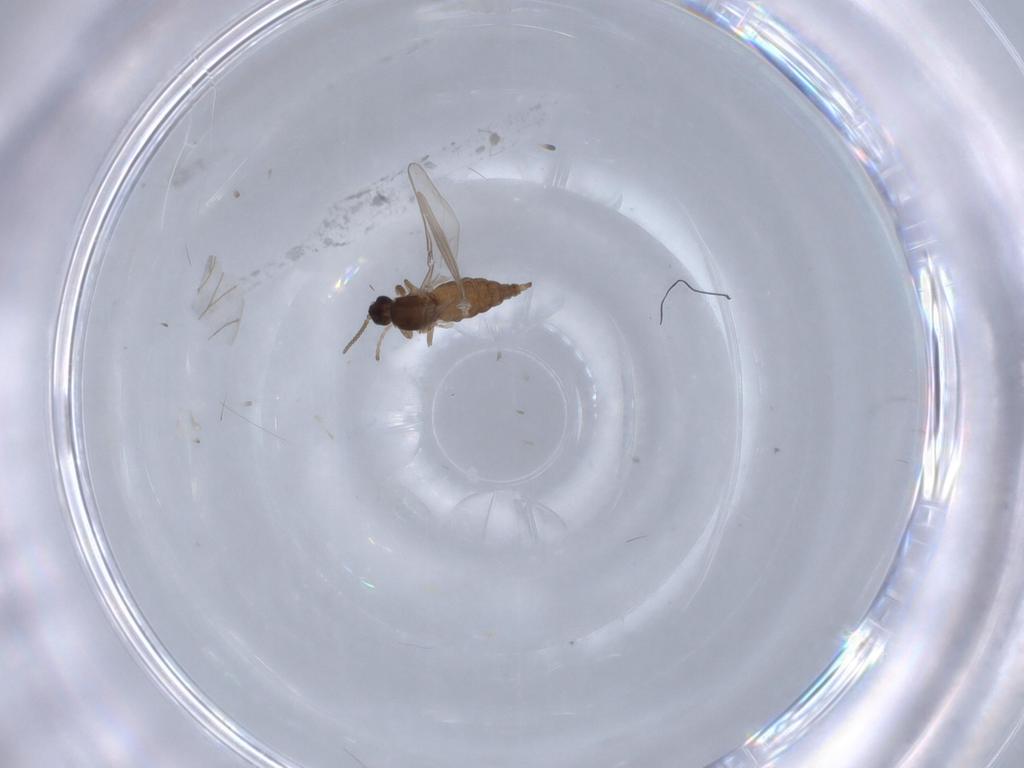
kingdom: Animalia
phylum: Arthropoda
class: Insecta
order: Diptera
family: Cecidomyiidae
